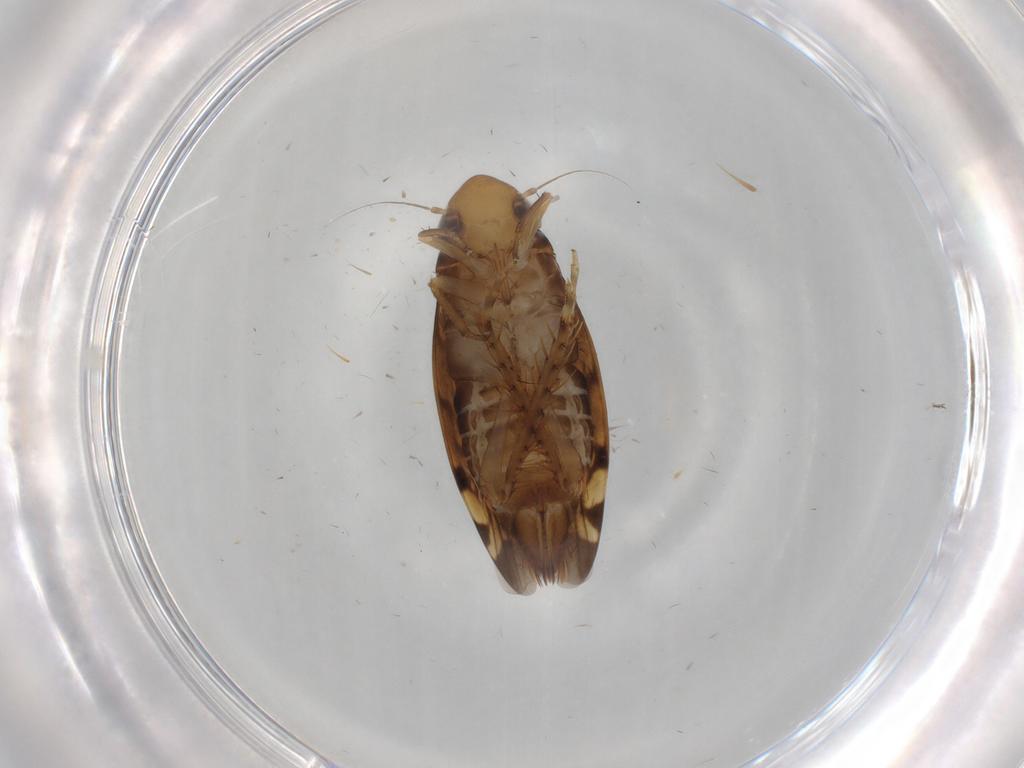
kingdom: Animalia
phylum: Arthropoda
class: Insecta
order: Hemiptera
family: Cicadellidae
